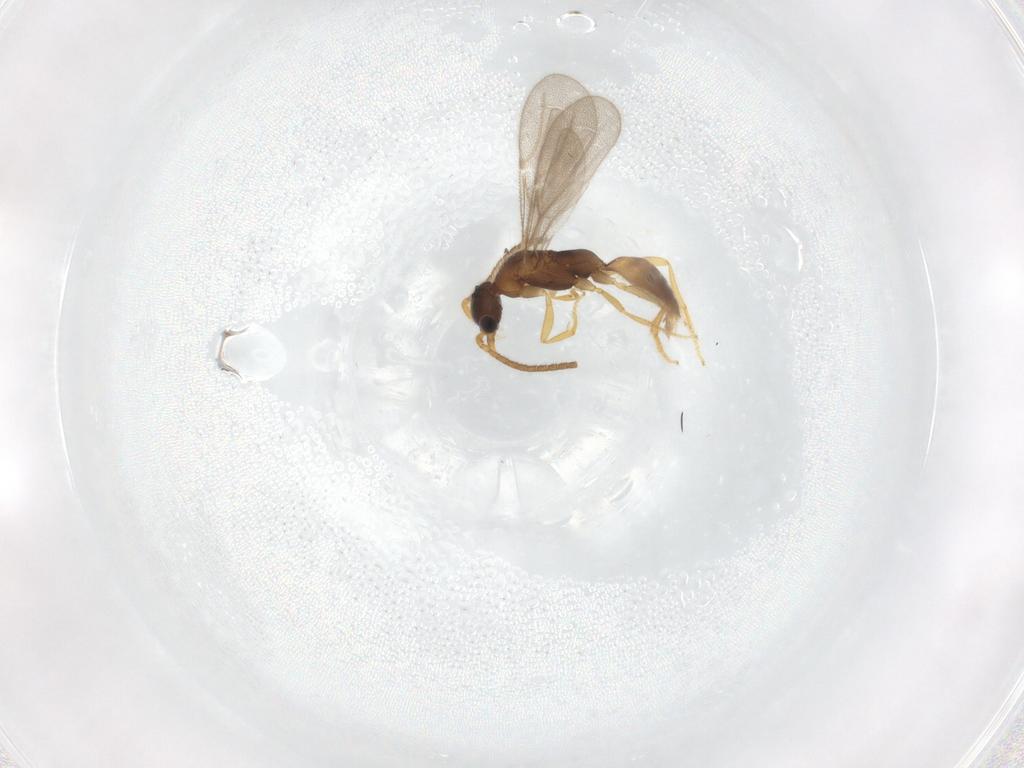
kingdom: Animalia
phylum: Arthropoda
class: Insecta
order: Hymenoptera
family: Bethylidae
